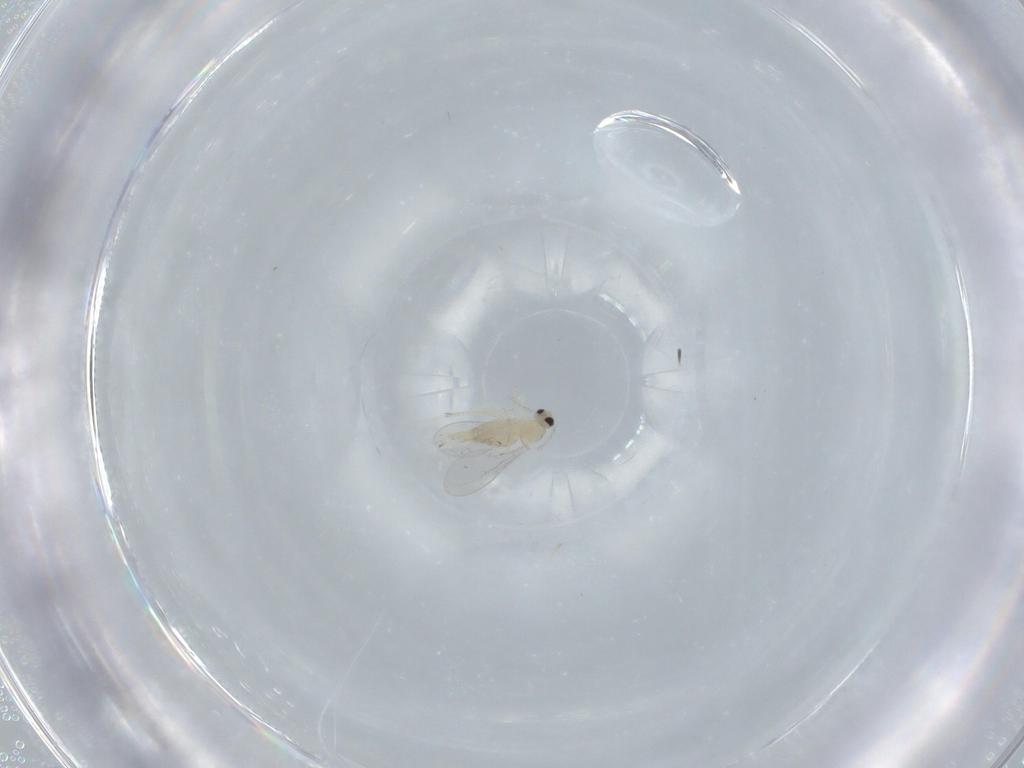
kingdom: Animalia
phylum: Arthropoda
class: Insecta
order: Diptera
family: Cecidomyiidae
